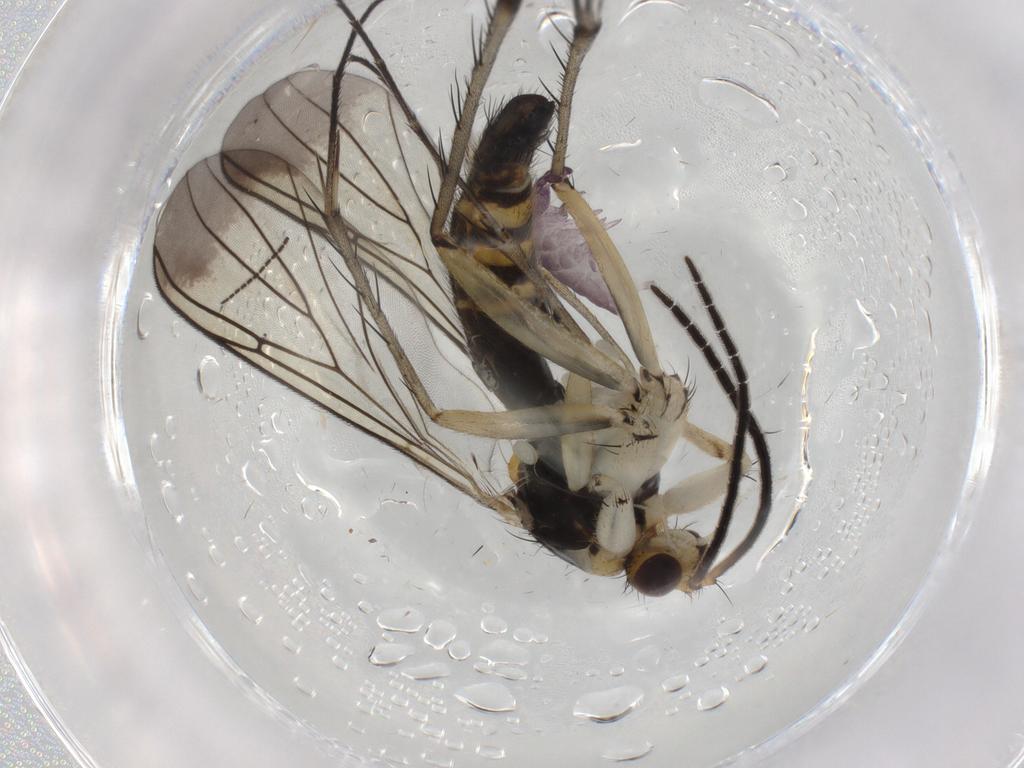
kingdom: Animalia
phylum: Arthropoda
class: Insecta
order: Diptera
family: Mycetophilidae
